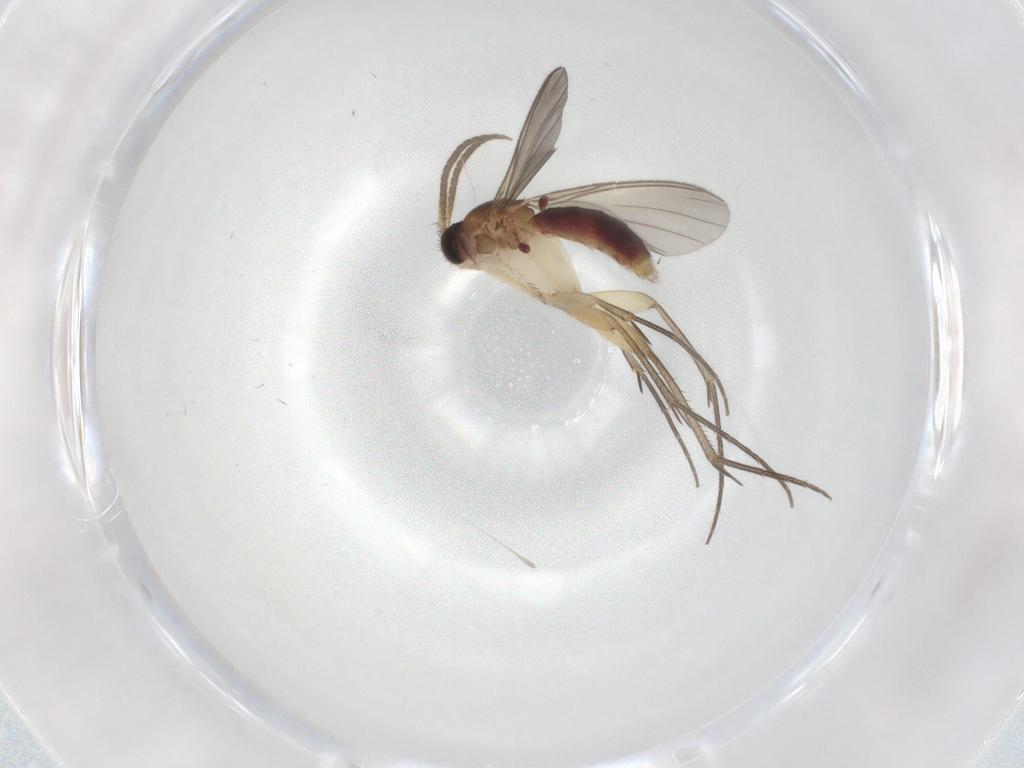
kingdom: Animalia
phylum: Arthropoda
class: Insecta
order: Diptera
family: Mycetophilidae
